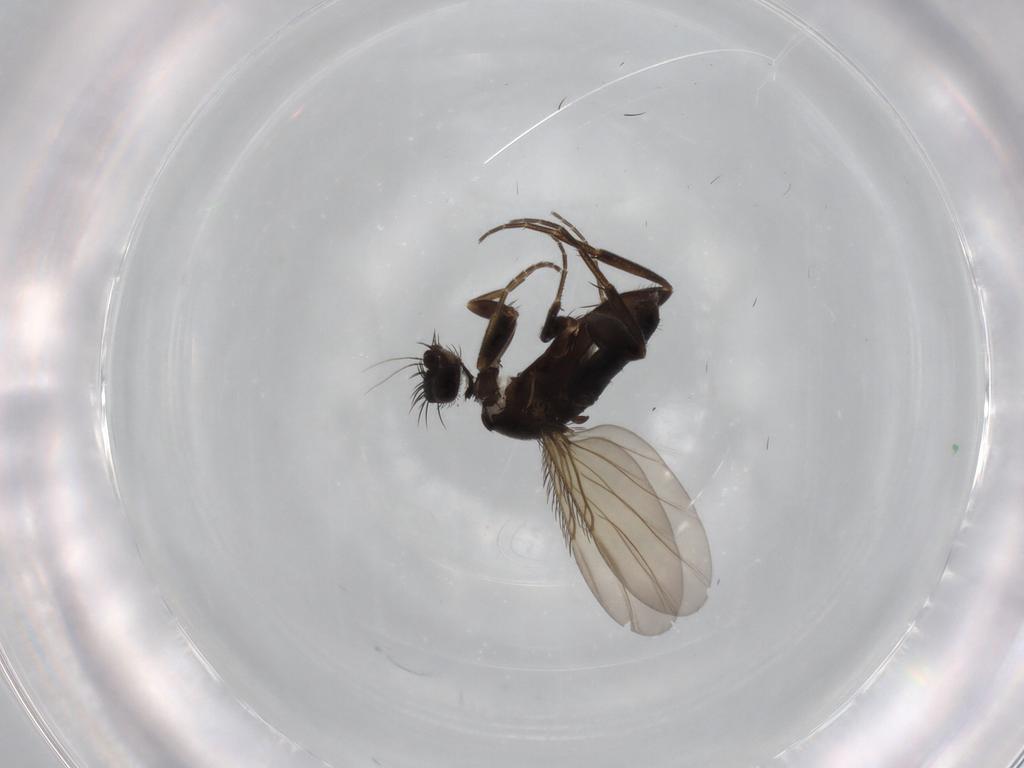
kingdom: Animalia
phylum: Arthropoda
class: Insecta
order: Diptera
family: Phoridae
